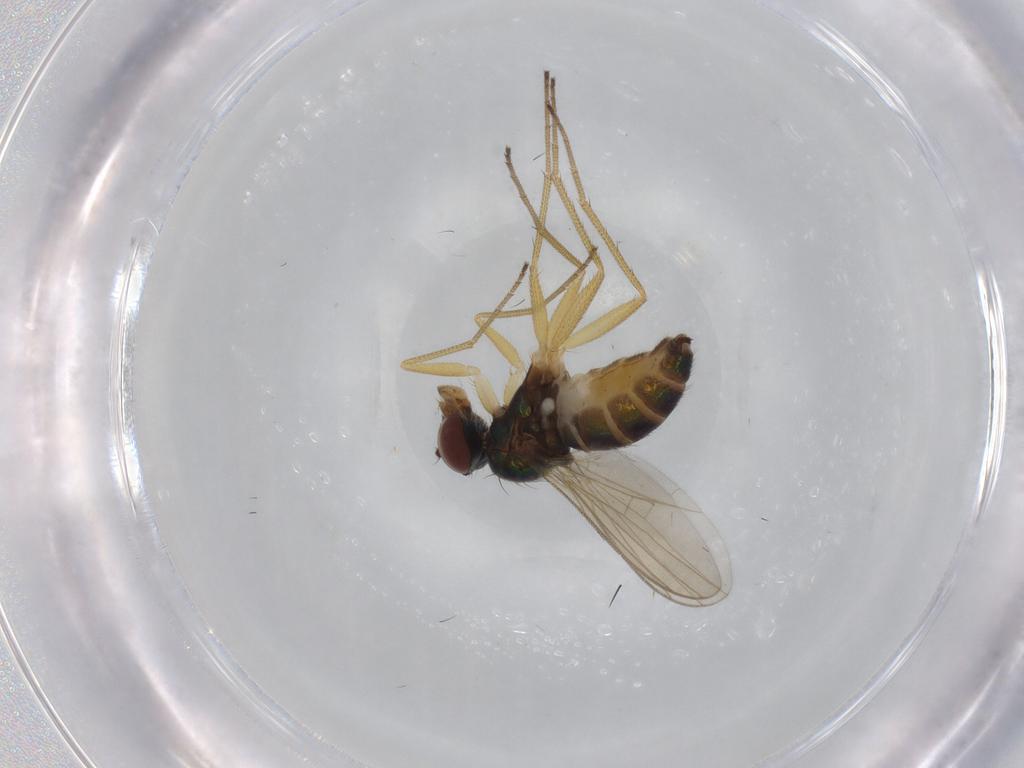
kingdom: Animalia
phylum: Arthropoda
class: Insecta
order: Diptera
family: Dolichopodidae
